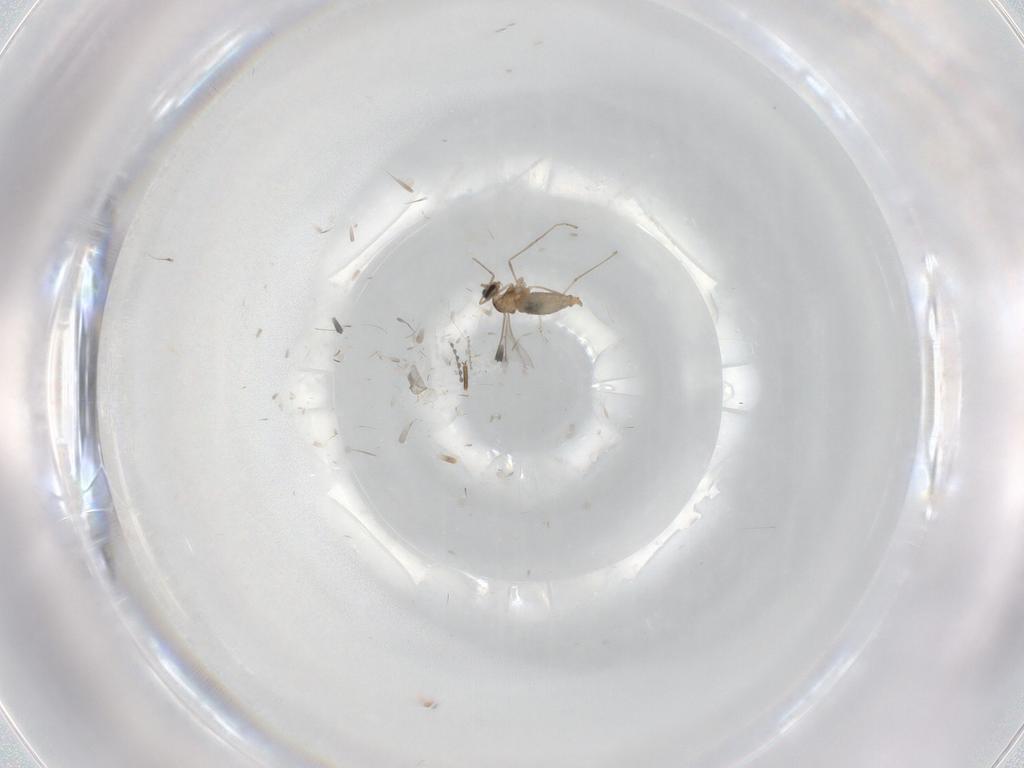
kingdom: Animalia
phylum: Arthropoda
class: Insecta
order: Diptera
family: Cecidomyiidae
